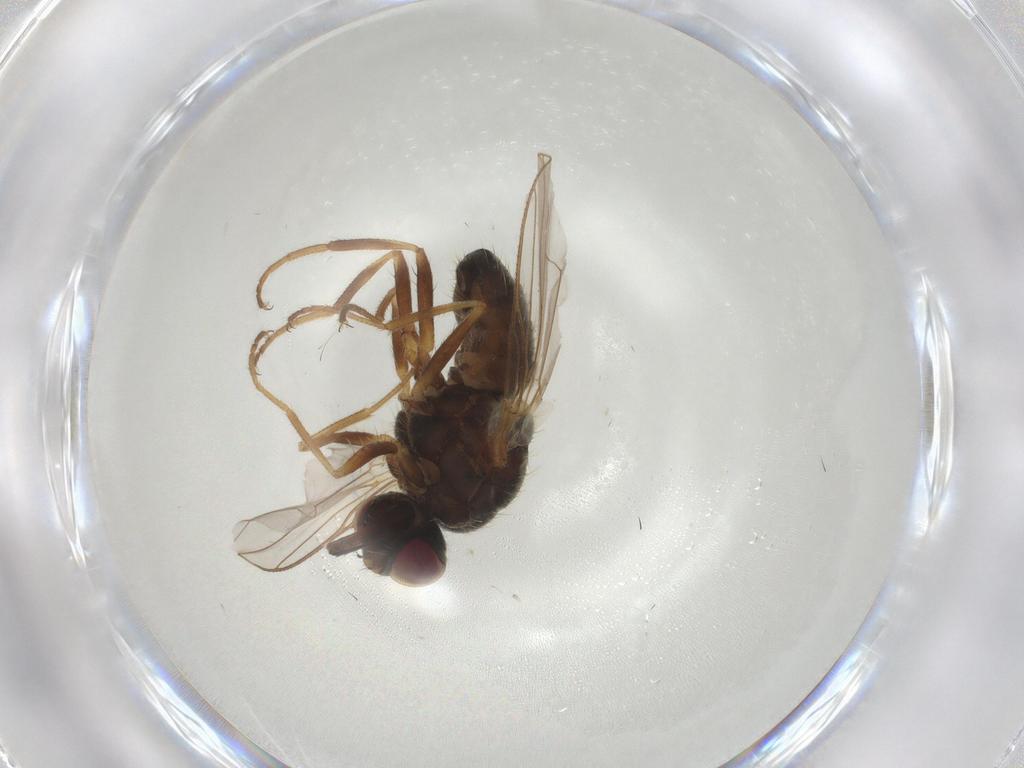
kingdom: Animalia
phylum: Arthropoda
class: Insecta
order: Diptera
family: Muscidae
